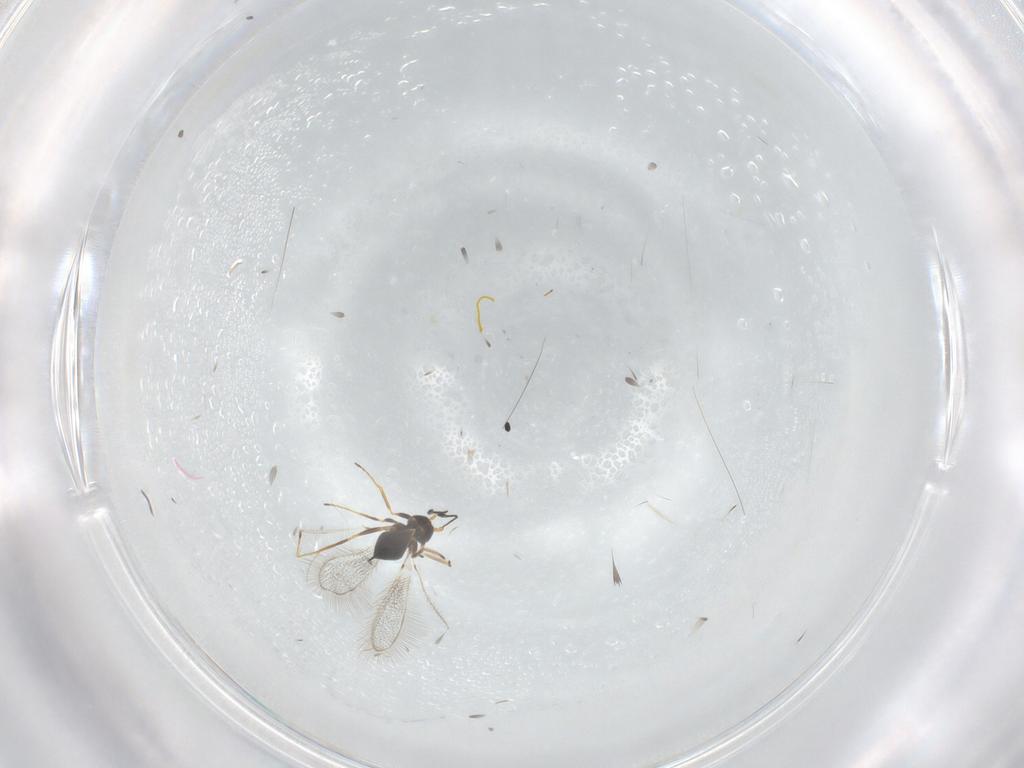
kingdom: Animalia
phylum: Arthropoda
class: Insecta
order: Hymenoptera
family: Mymaridae
